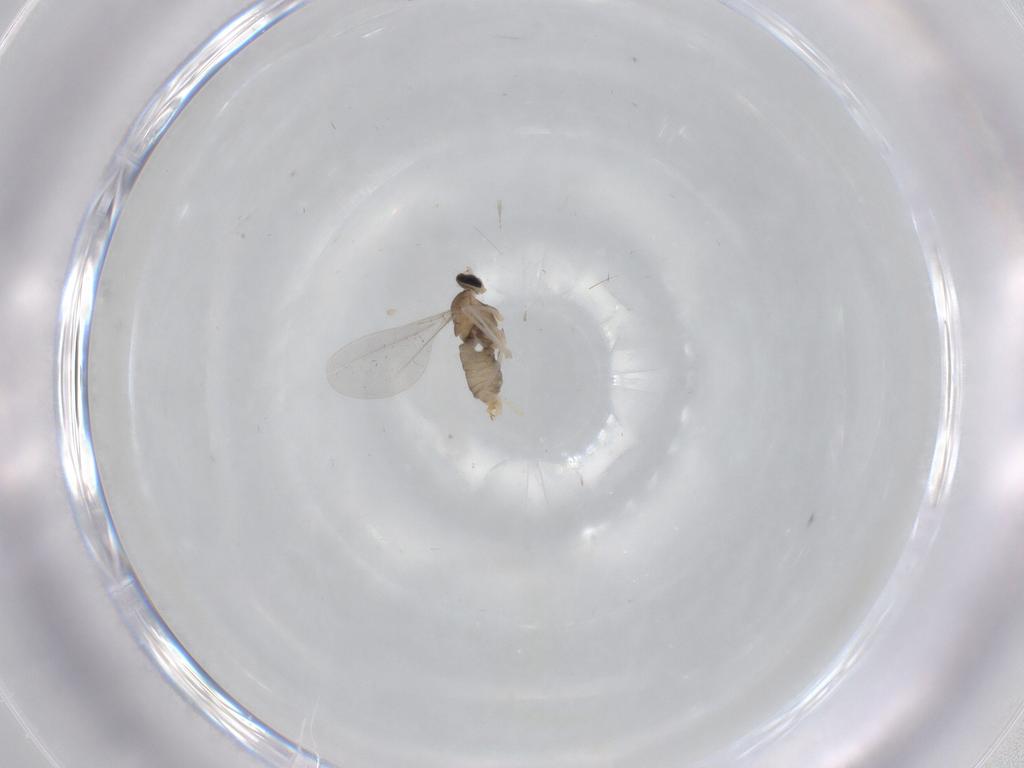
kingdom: Animalia
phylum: Arthropoda
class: Insecta
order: Diptera
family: Cecidomyiidae
